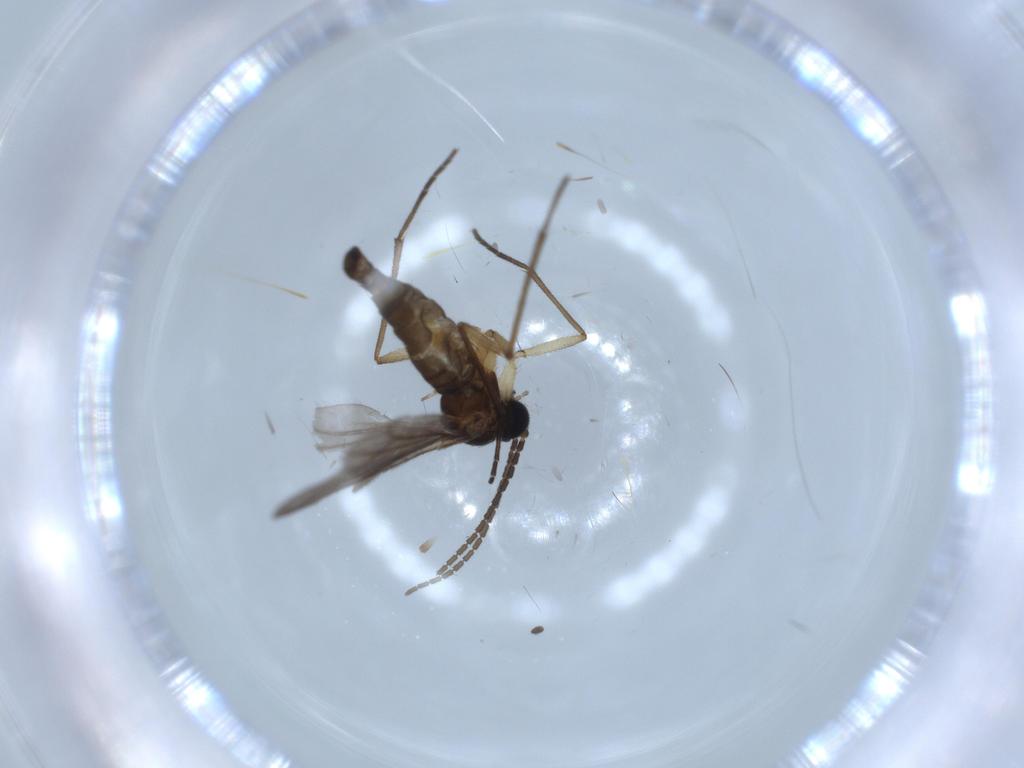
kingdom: Animalia
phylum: Arthropoda
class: Insecta
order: Diptera
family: Sciaridae
